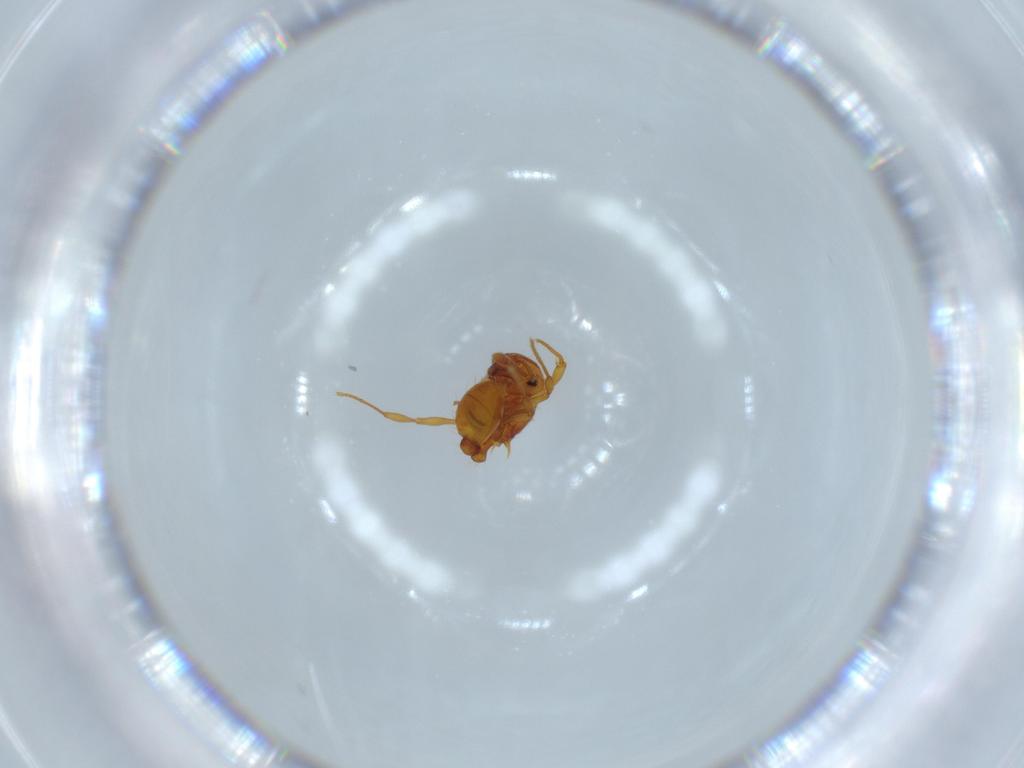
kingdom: Animalia
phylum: Arthropoda
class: Insecta
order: Hymenoptera
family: Formicidae
